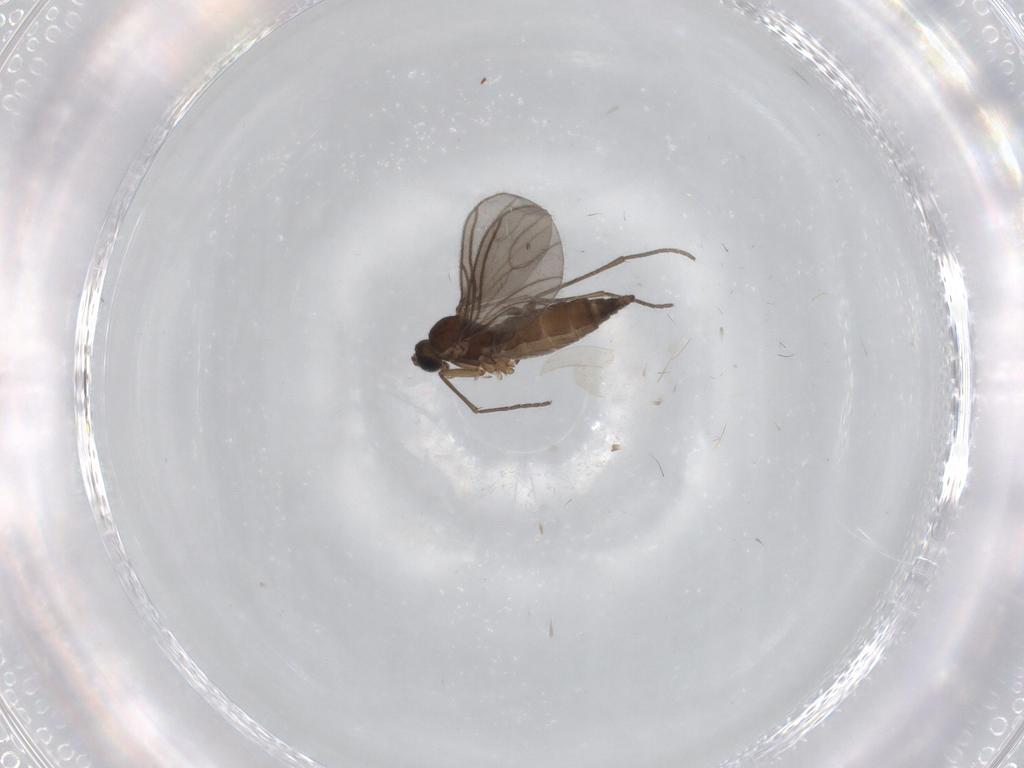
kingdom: Animalia
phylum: Arthropoda
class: Insecta
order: Diptera
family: Sciaridae
